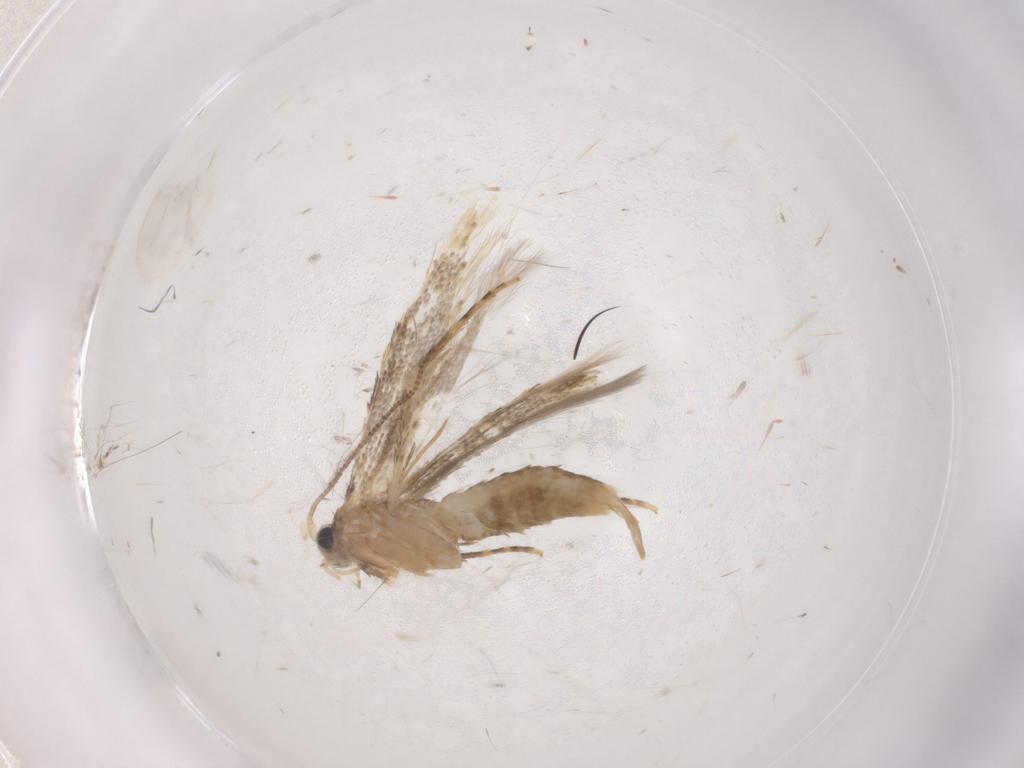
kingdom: Animalia
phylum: Arthropoda
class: Insecta
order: Lepidoptera
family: Tineidae
